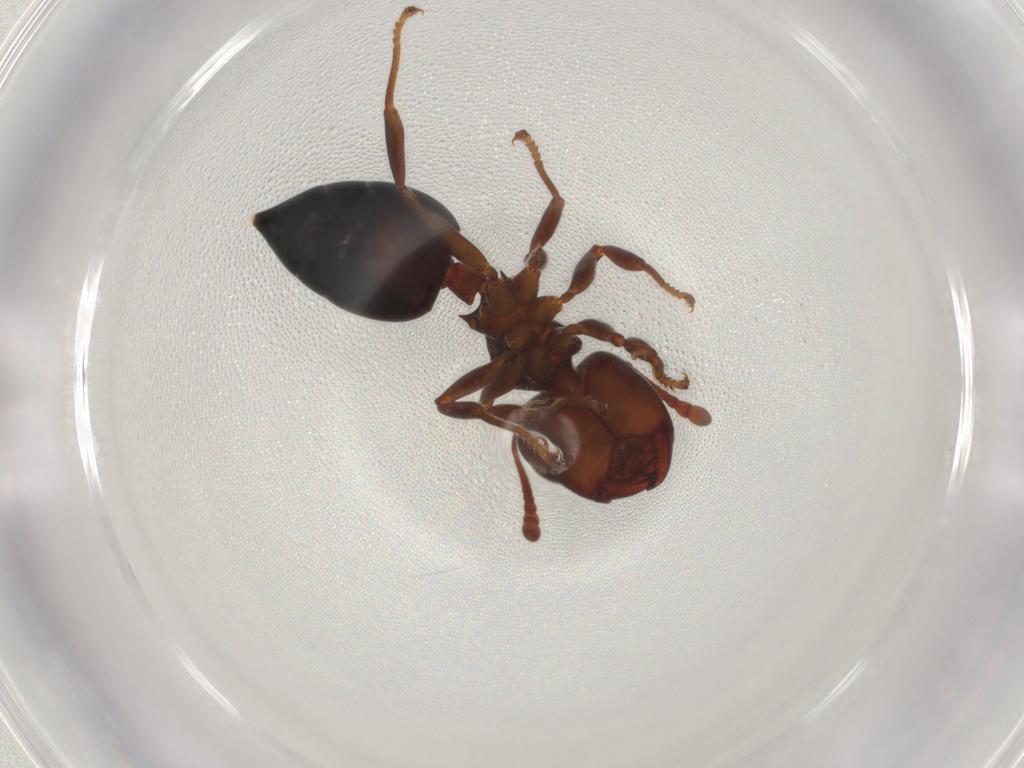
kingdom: Animalia
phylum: Arthropoda
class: Insecta
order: Hymenoptera
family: Formicidae
